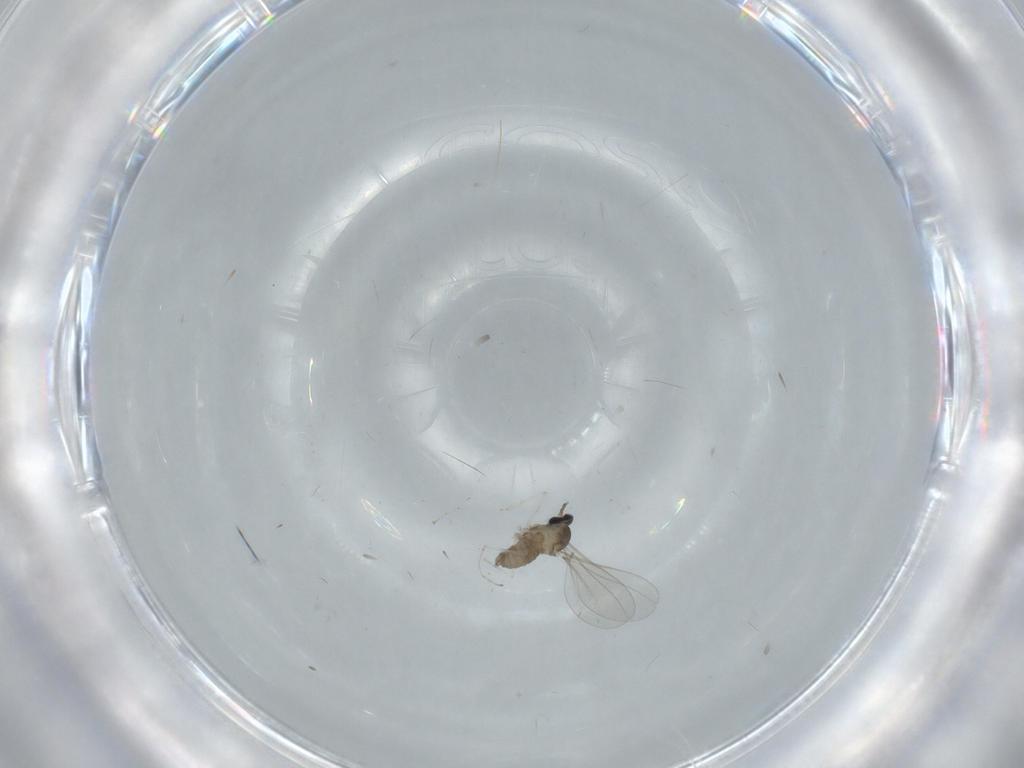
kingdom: Animalia
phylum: Arthropoda
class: Insecta
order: Diptera
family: Cecidomyiidae
